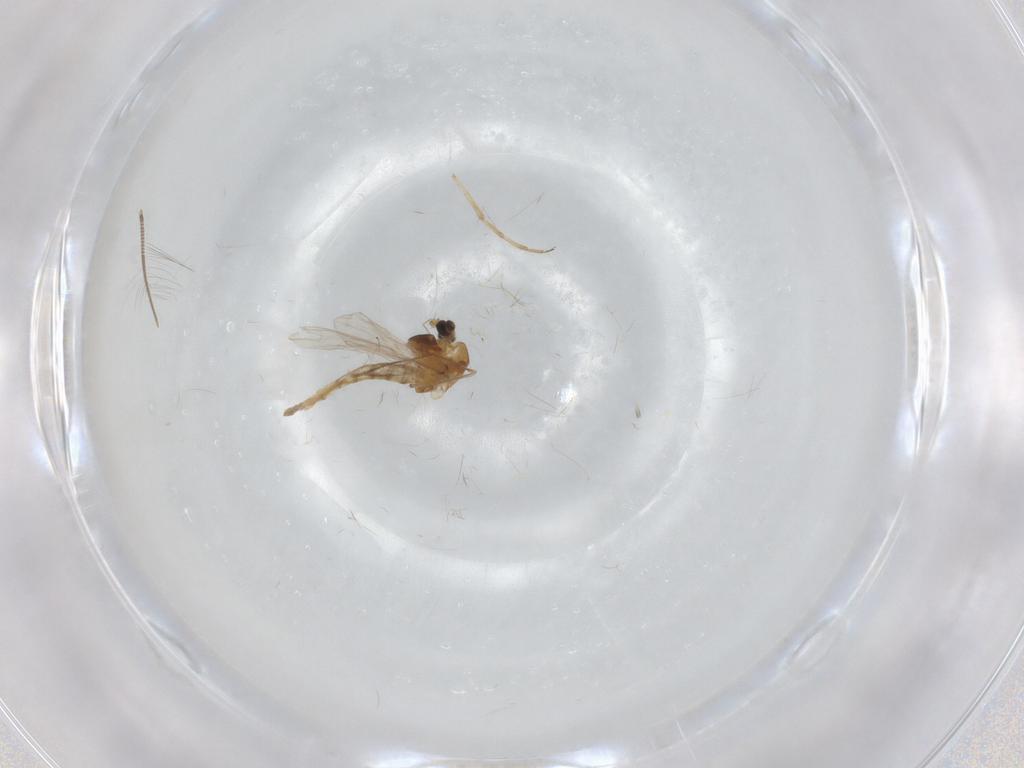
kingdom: Animalia
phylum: Arthropoda
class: Insecta
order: Diptera
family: Chironomidae
